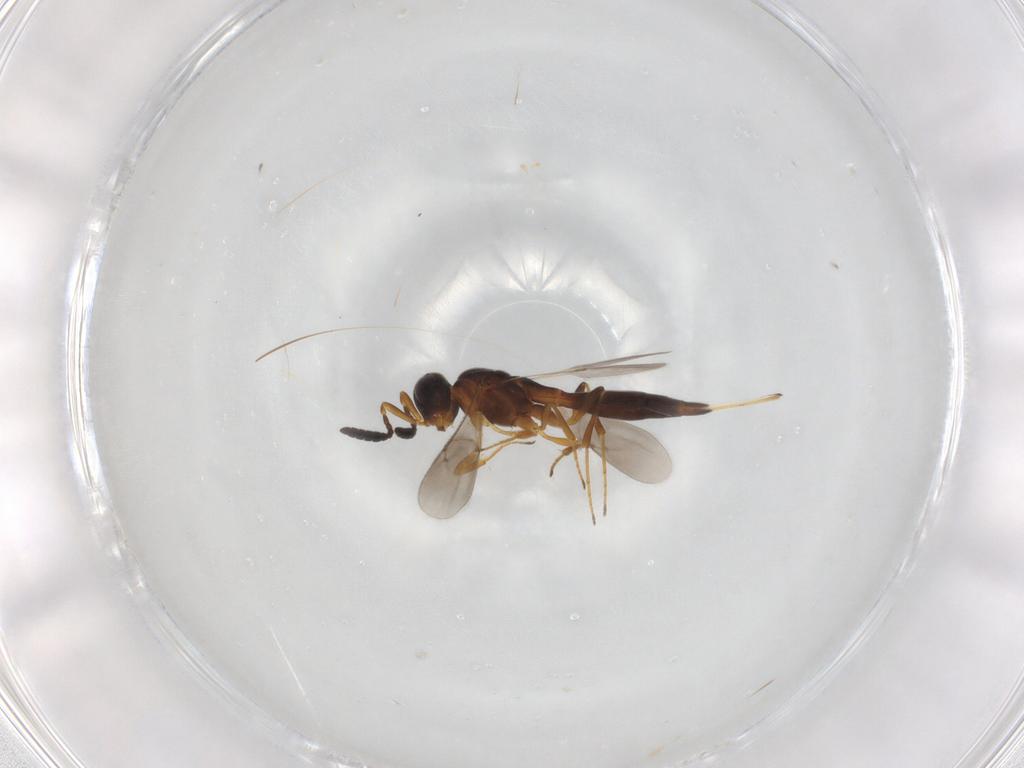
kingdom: Animalia
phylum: Arthropoda
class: Insecta
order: Hymenoptera
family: Scelionidae
